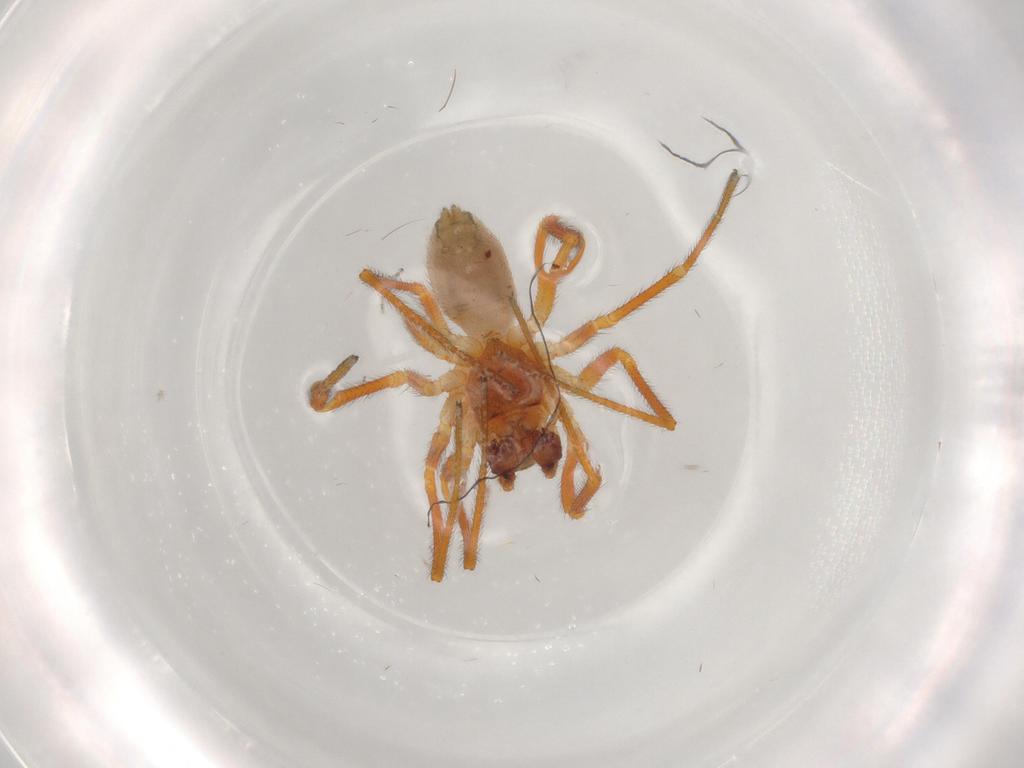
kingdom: Animalia
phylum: Arthropoda
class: Arachnida
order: Araneae
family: Linyphiidae
